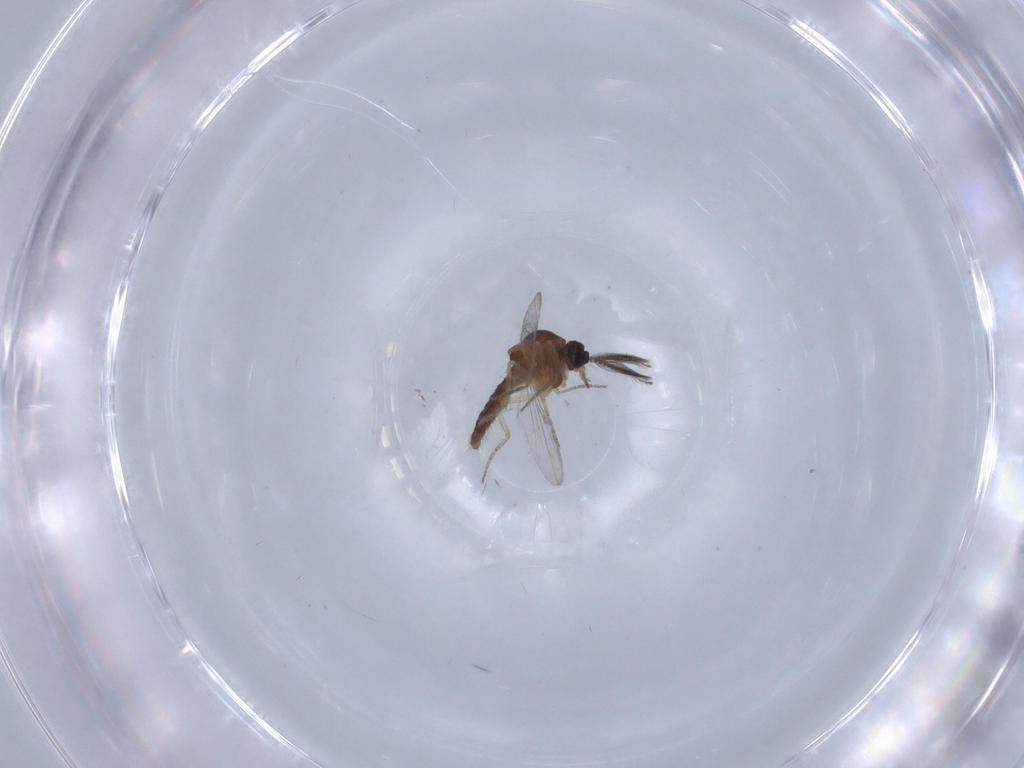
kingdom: Animalia
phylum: Arthropoda
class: Insecta
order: Diptera
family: Ceratopogonidae
